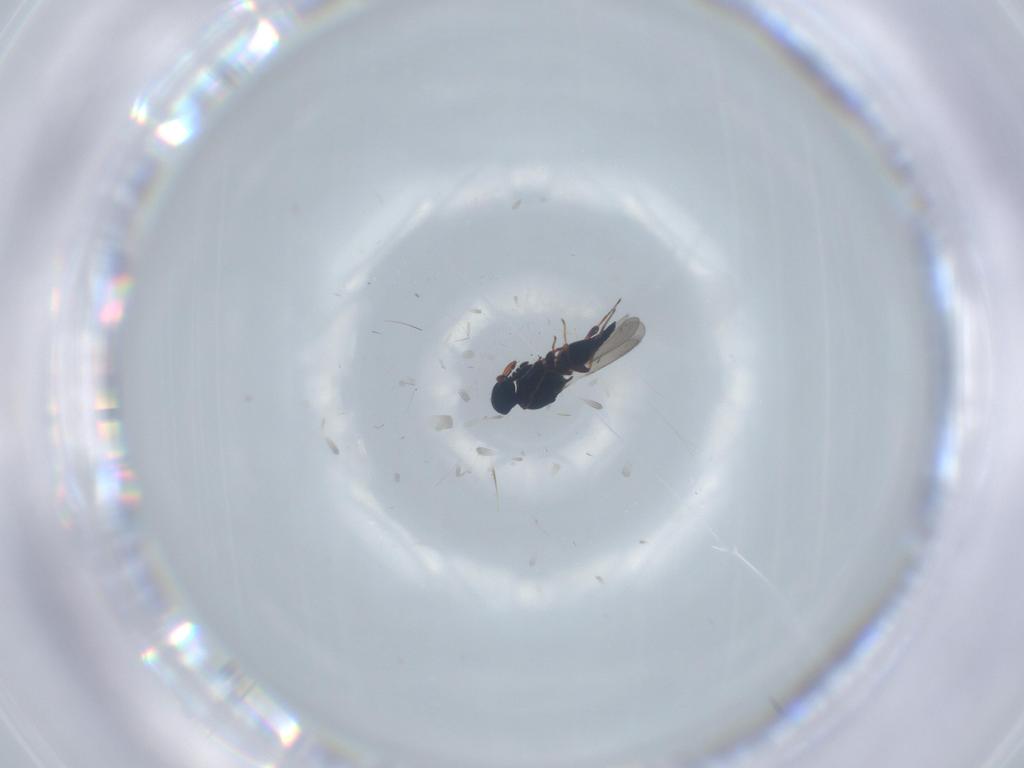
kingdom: Animalia
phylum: Arthropoda
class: Insecta
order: Hymenoptera
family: Platygastridae
